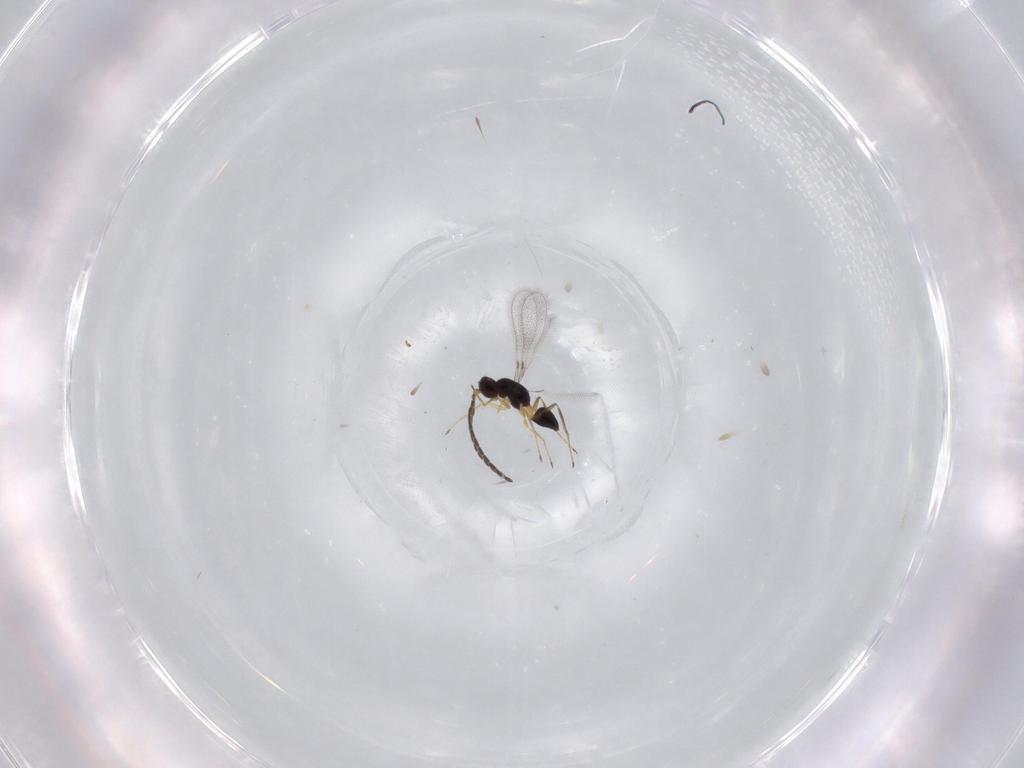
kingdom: Animalia
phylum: Arthropoda
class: Insecta
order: Hymenoptera
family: Mymaridae
